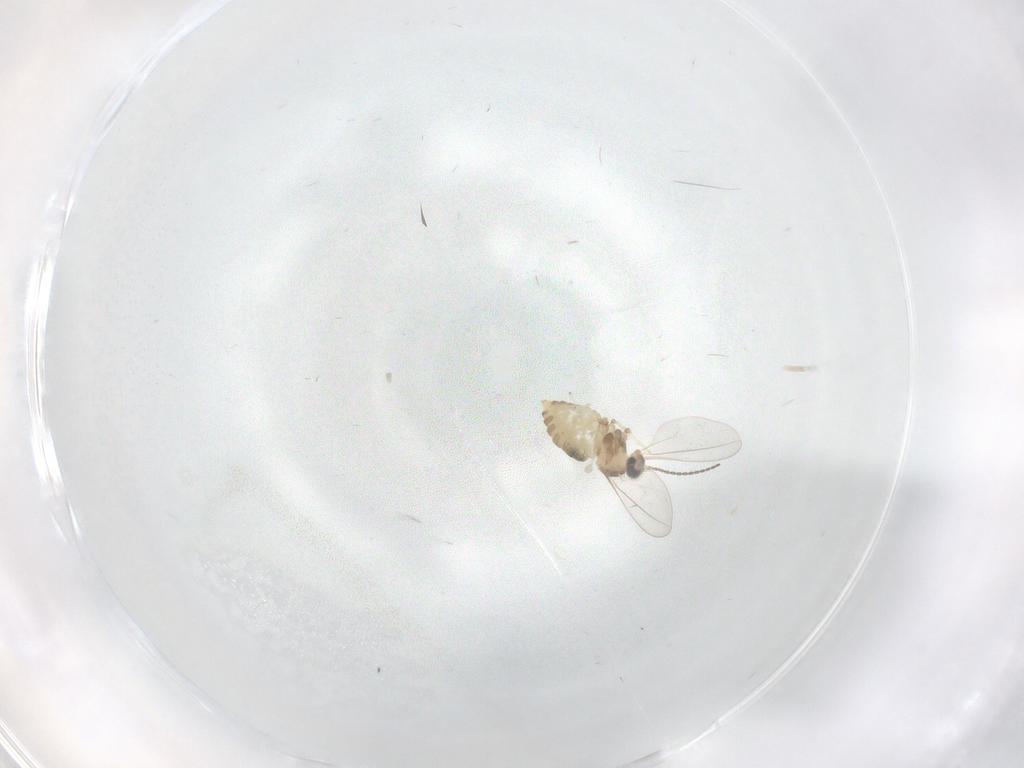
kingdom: Animalia
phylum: Arthropoda
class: Insecta
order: Diptera
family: Cecidomyiidae
